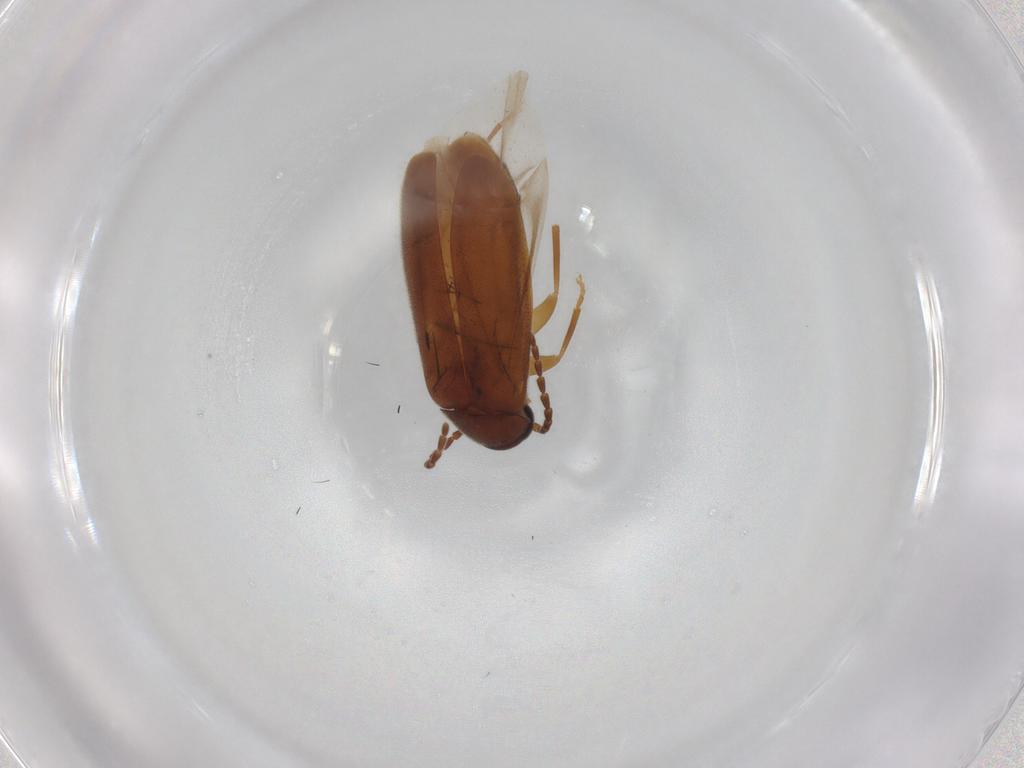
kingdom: Animalia
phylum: Arthropoda
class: Insecta
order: Coleoptera
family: Scraptiidae
